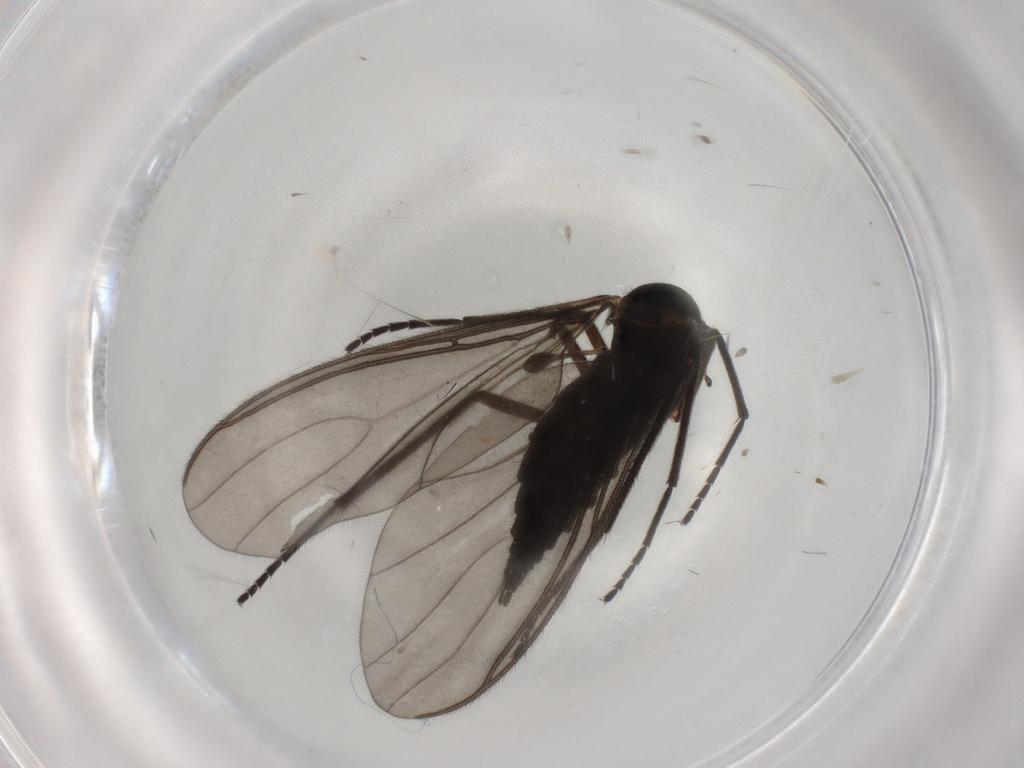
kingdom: Animalia
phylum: Arthropoda
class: Insecta
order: Diptera
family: Sciaridae
